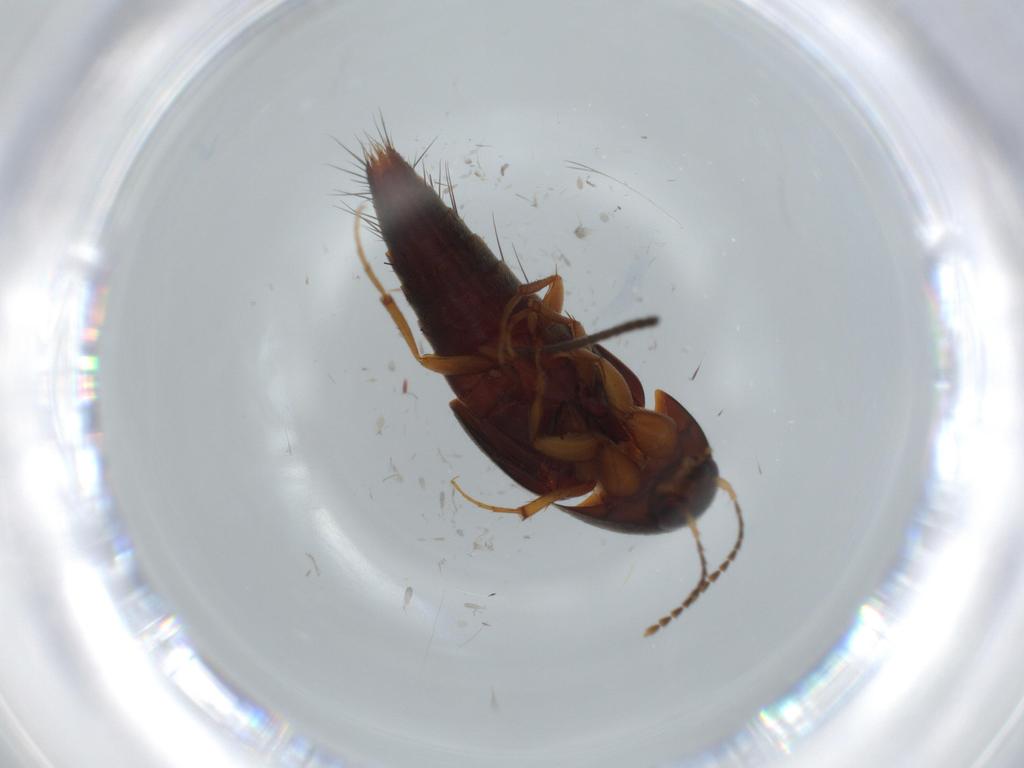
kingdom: Animalia
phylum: Arthropoda
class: Insecta
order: Coleoptera
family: Staphylinidae
